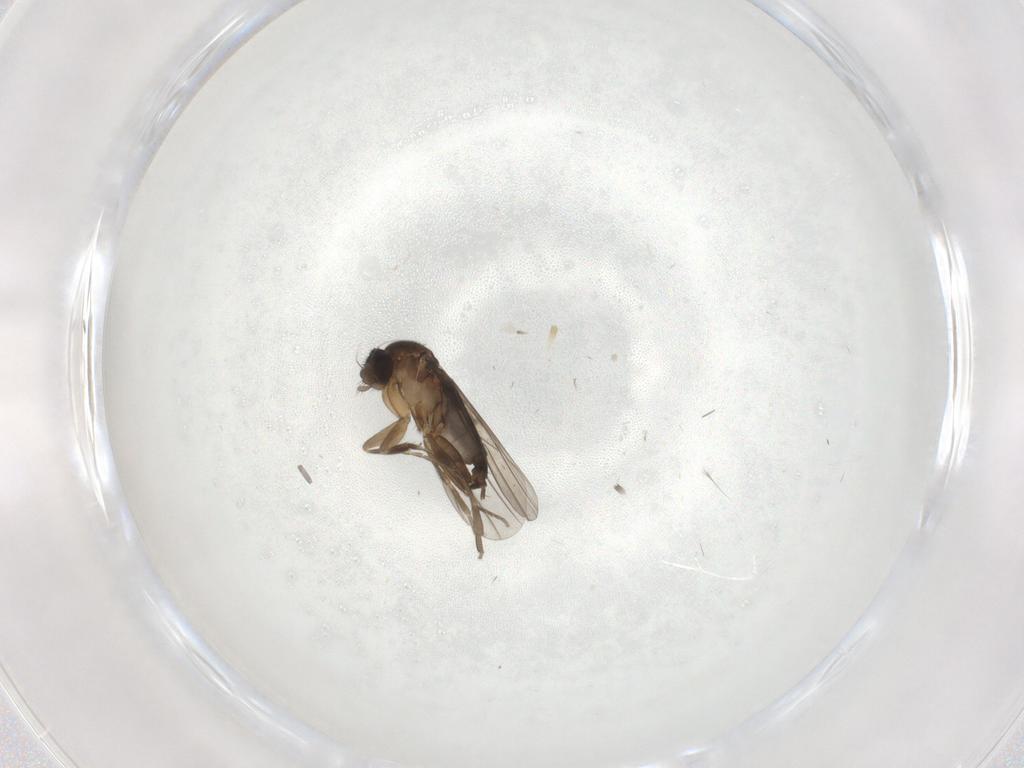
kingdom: Animalia
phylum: Arthropoda
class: Insecta
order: Diptera
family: Phoridae
